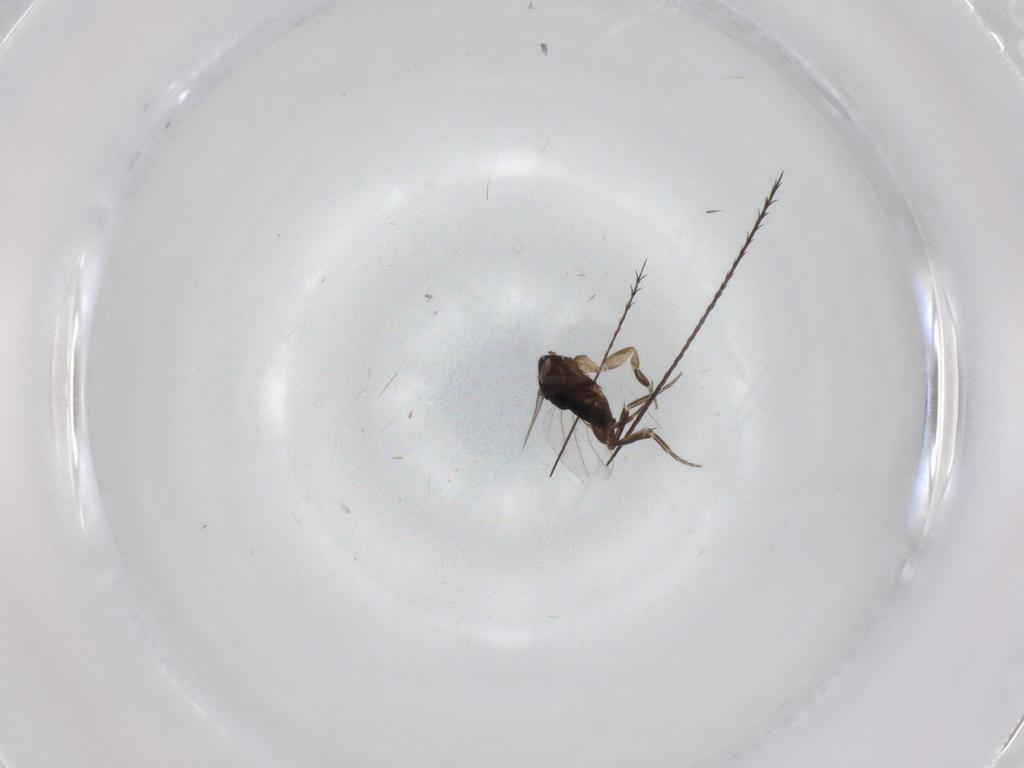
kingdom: Animalia
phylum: Arthropoda
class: Insecta
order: Diptera
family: Phoridae
